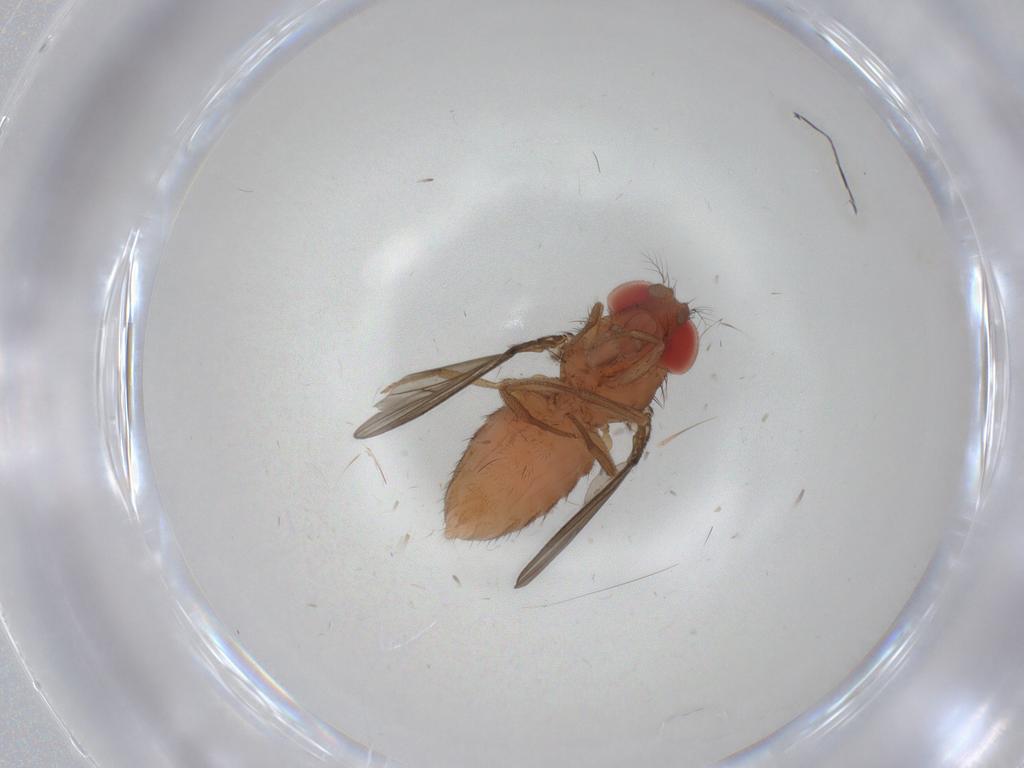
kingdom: Animalia
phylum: Arthropoda
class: Insecta
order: Diptera
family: Drosophilidae
